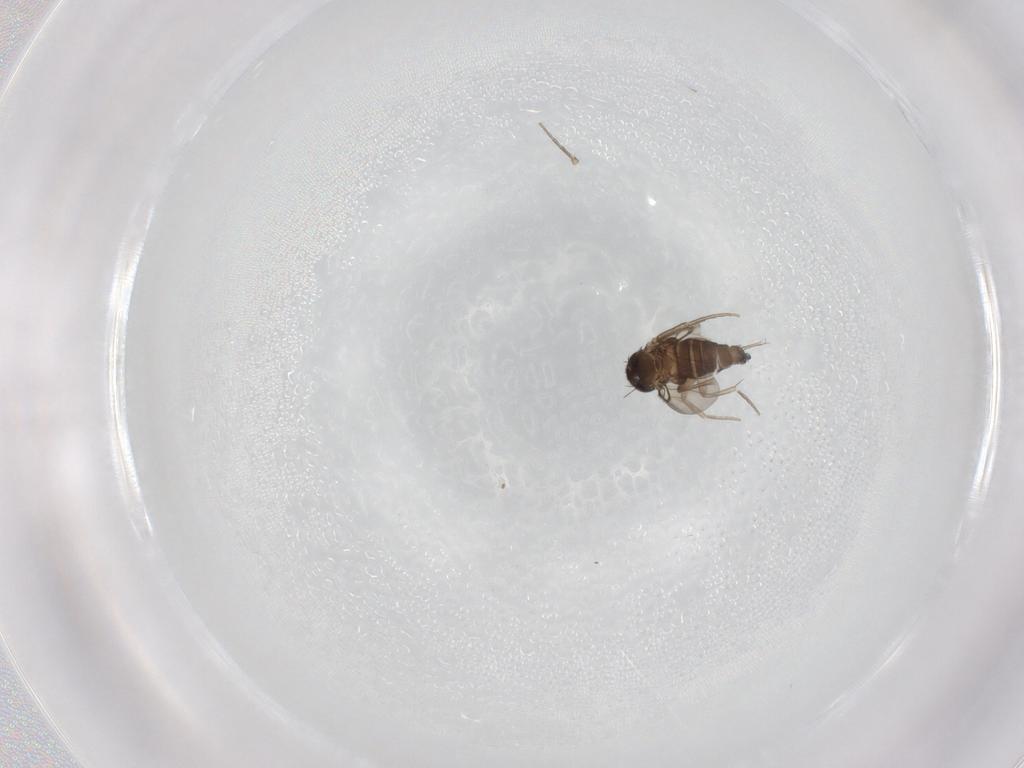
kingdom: Animalia
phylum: Arthropoda
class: Insecta
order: Diptera
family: Phoridae
